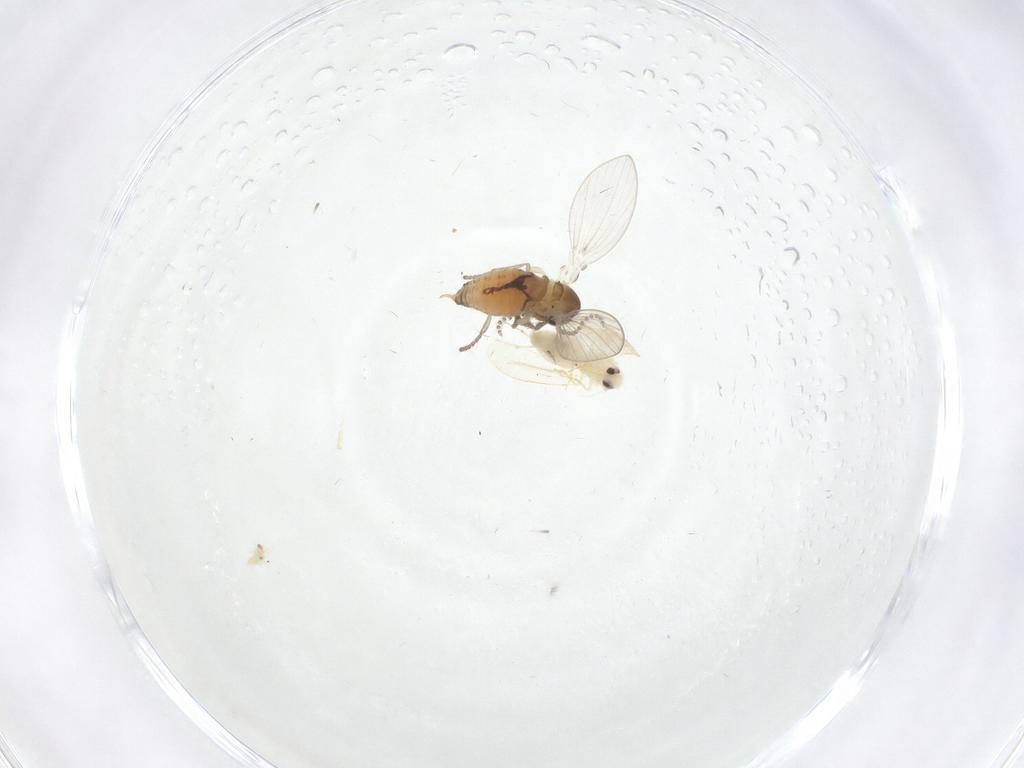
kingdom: Animalia
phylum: Arthropoda
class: Insecta
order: Diptera
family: Psychodidae
